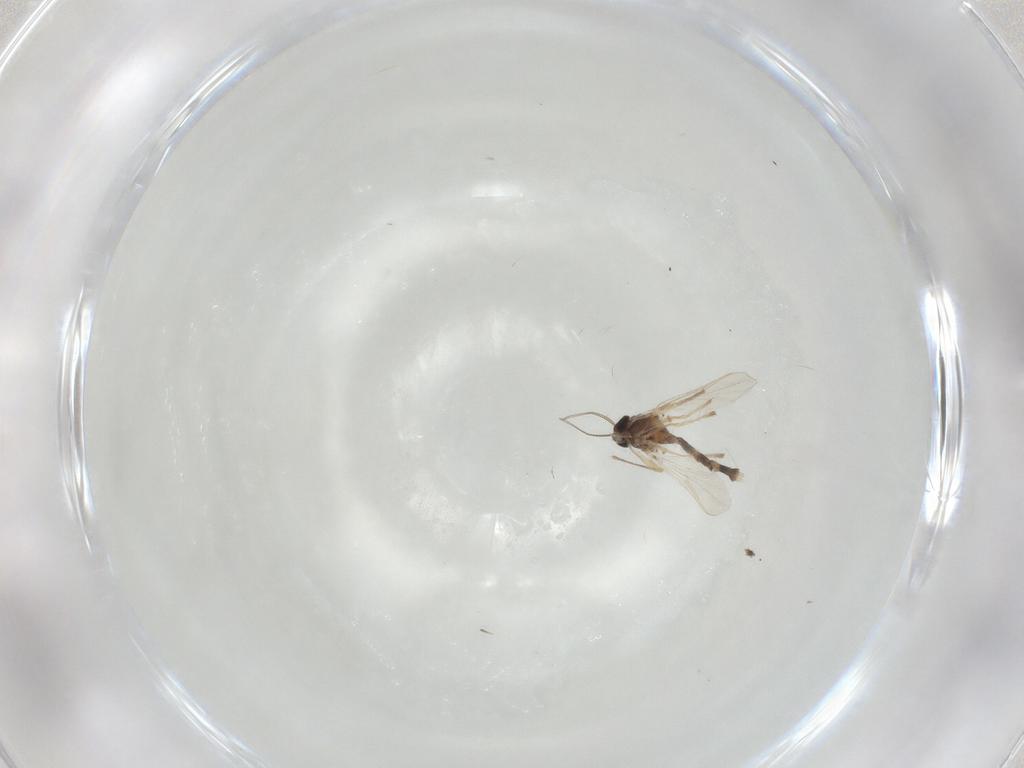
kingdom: Animalia
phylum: Arthropoda
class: Insecta
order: Diptera
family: Chironomidae
